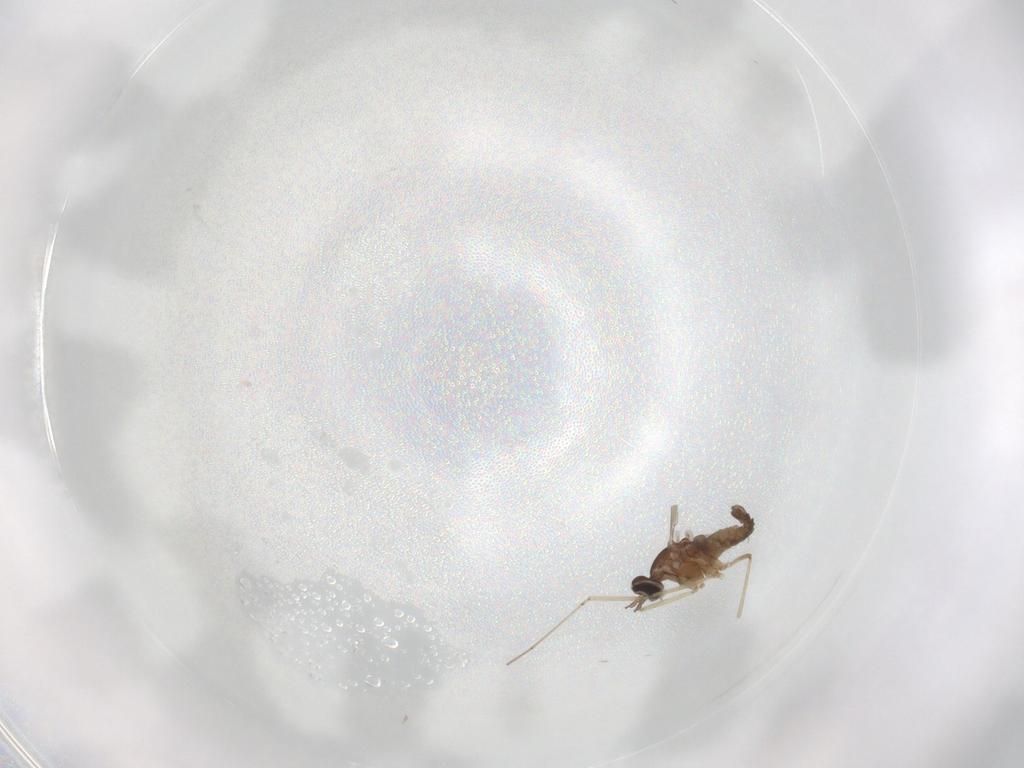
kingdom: Animalia
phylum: Arthropoda
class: Insecta
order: Diptera
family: Cecidomyiidae
